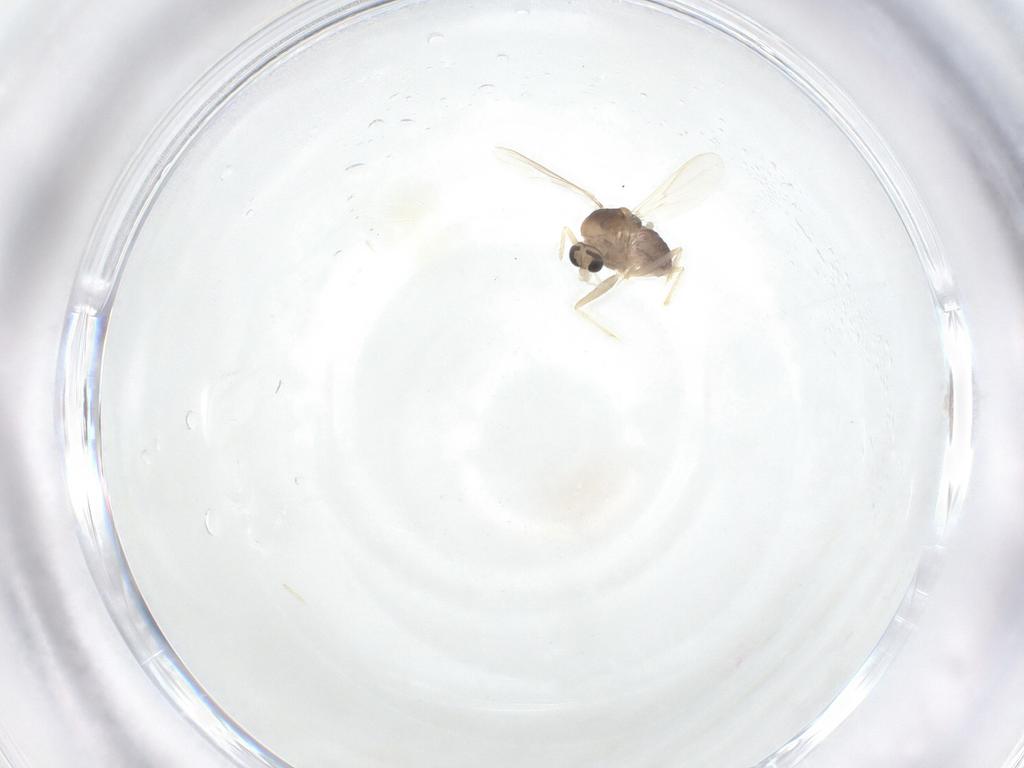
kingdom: Animalia
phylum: Arthropoda
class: Insecta
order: Diptera
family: Chironomidae
